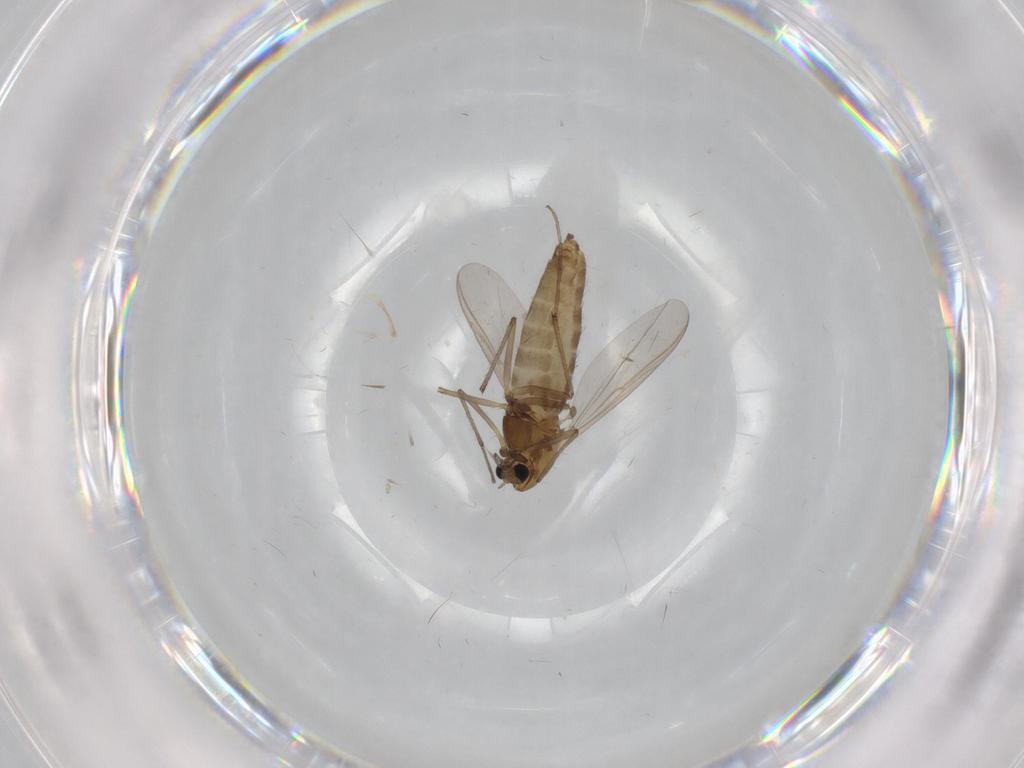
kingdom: Animalia
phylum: Arthropoda
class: Insecta
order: Diptera
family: Chironomidae
